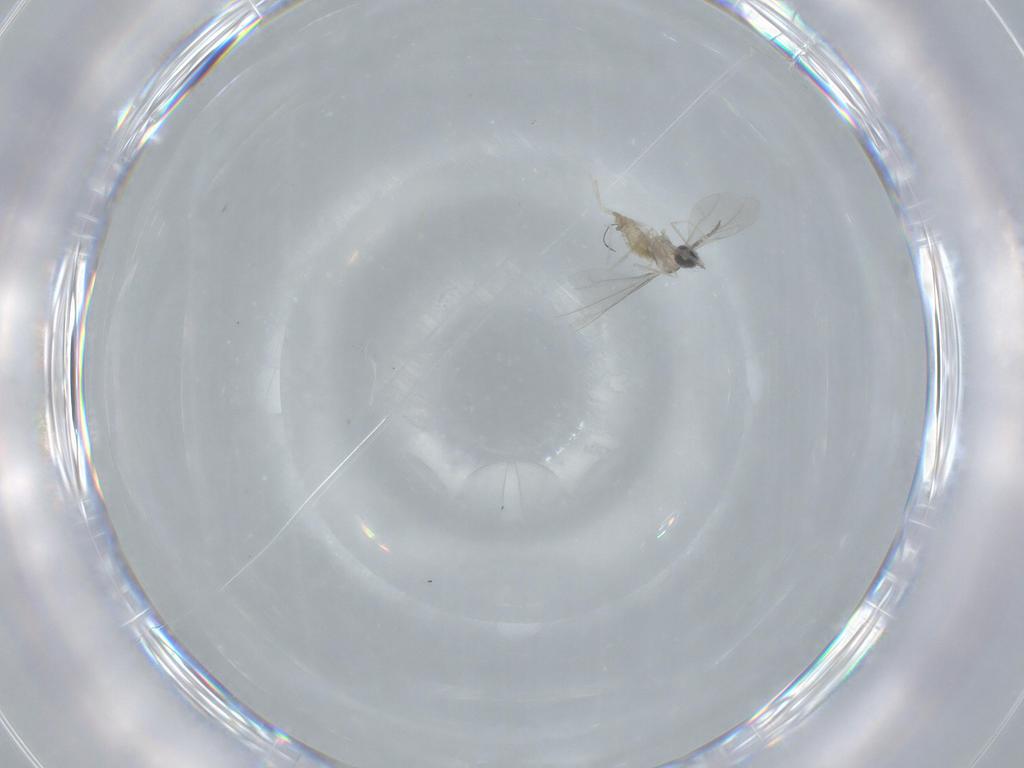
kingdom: Animalia
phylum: Arthropoda
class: Insecta
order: Diptera
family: Cecidomyiidae
